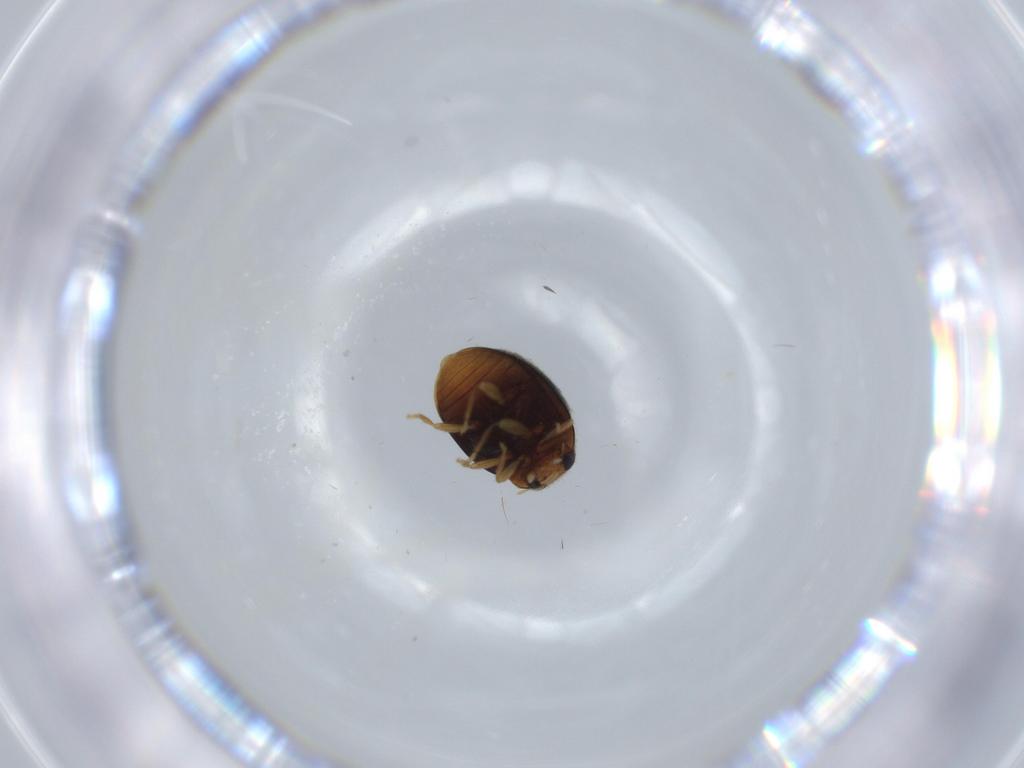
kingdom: Animalia
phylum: Arthropoda
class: Insecta
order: Coleoptera
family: Coccinellidae
